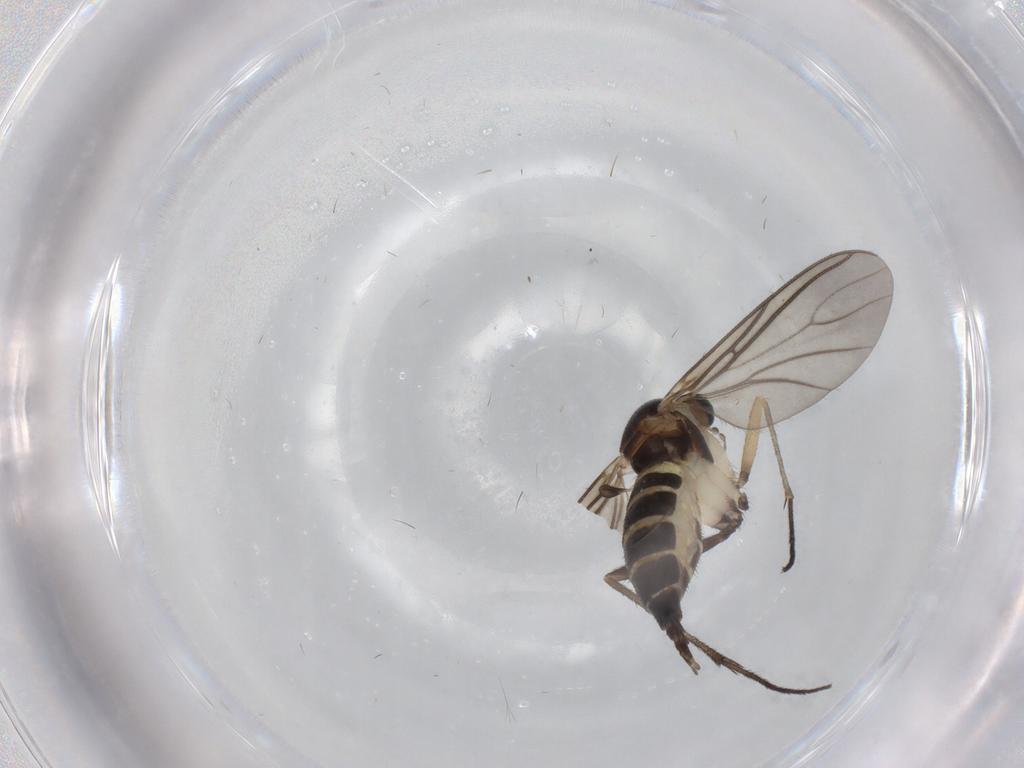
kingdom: Animalia
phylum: Arthropoda
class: Insecta
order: Diptera
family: Sciaridae
